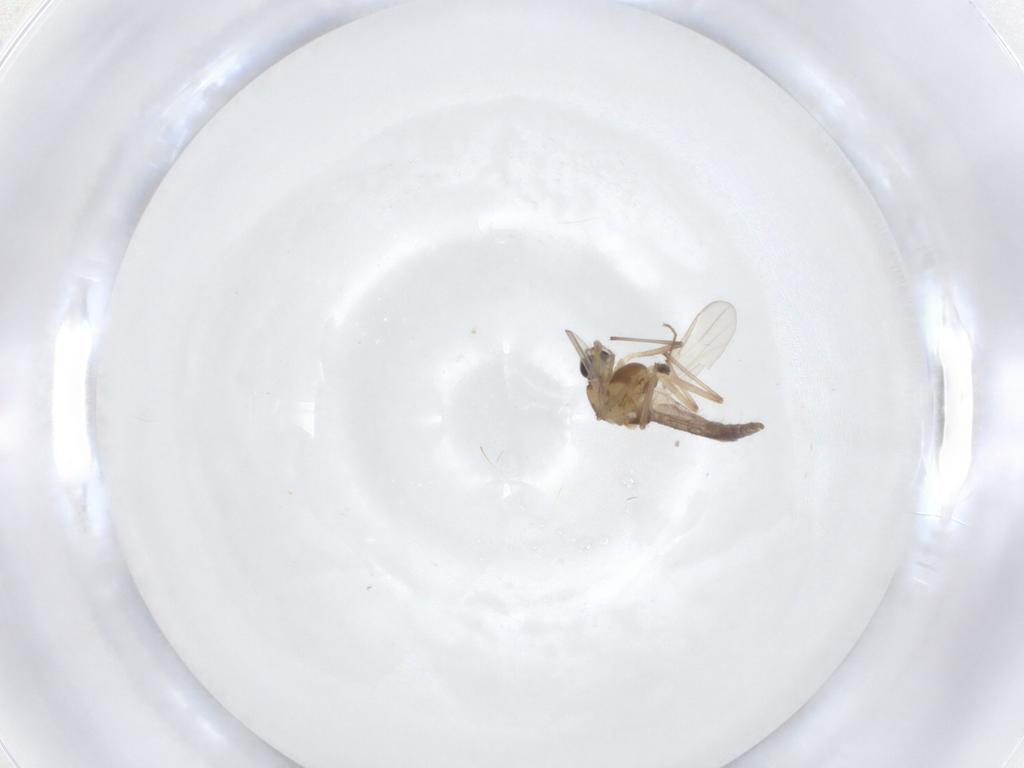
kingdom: Animalia
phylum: Arthropoda
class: Insecta
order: Diptera
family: Chironomidae
